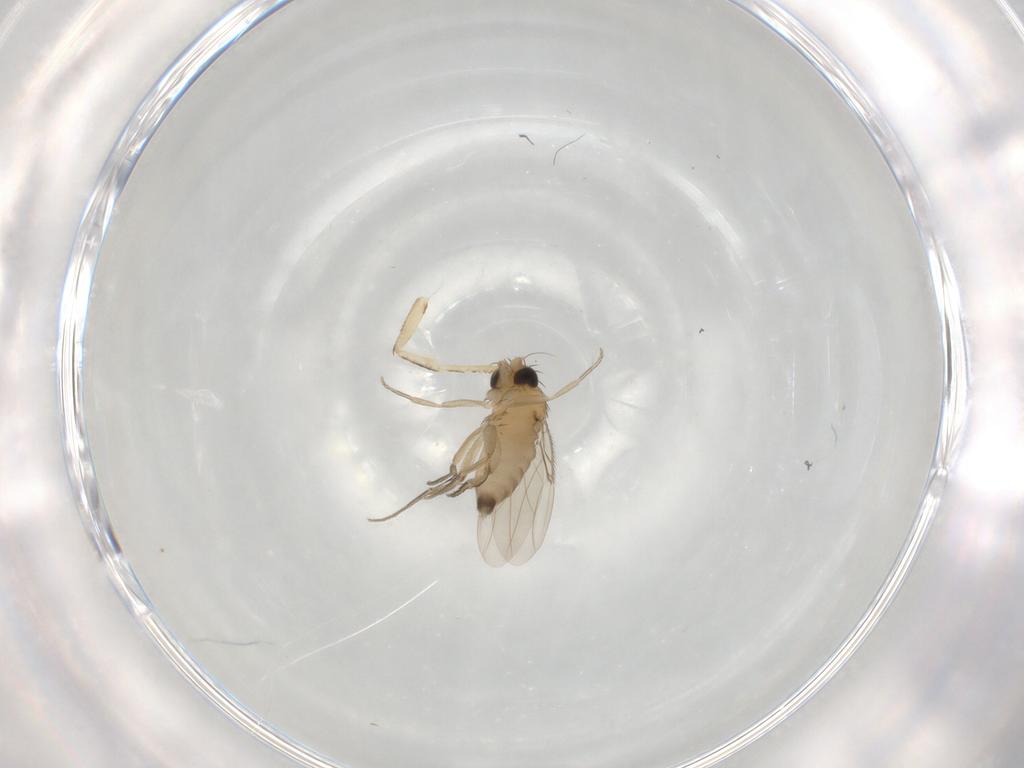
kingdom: Animalia
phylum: Arthropoda
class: Insecta
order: Diptera
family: Phoridae
